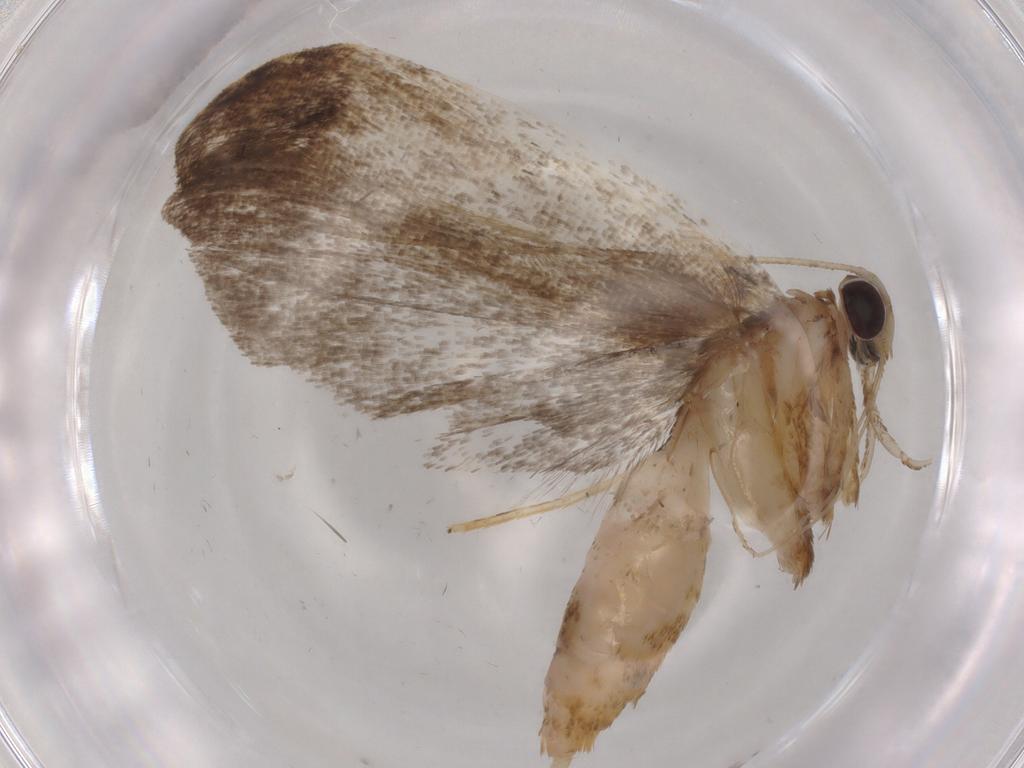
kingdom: Animalia
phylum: Arthropoda
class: Insecta
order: Lepidoptera
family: Autostichidae
